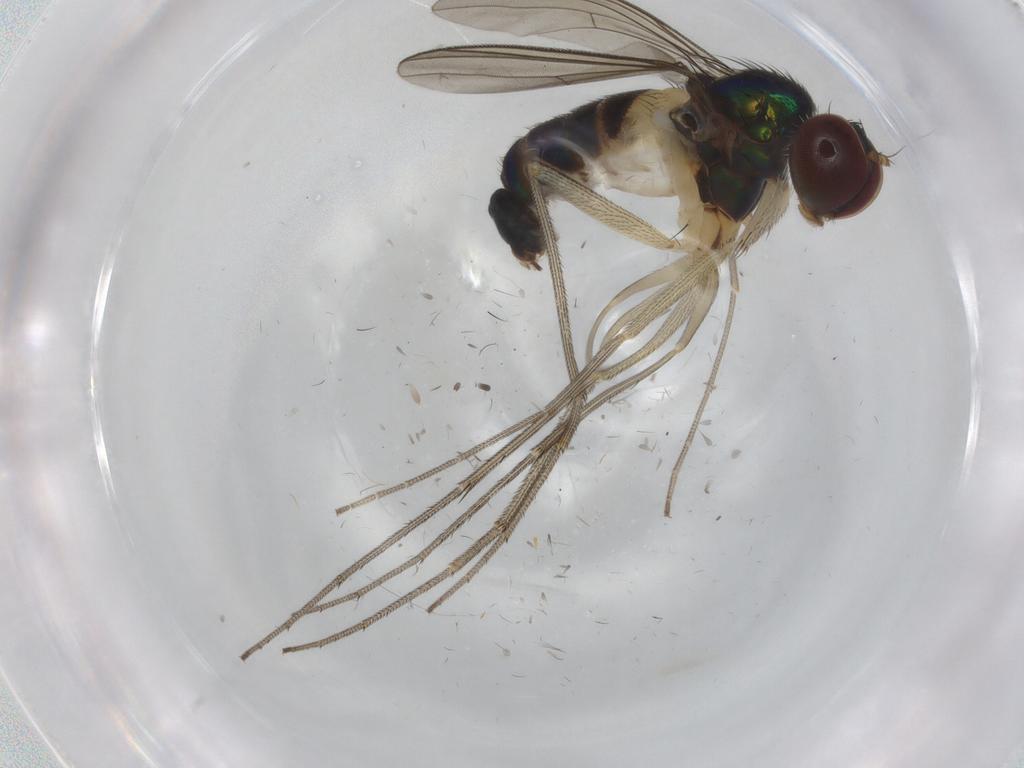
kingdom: Animalia
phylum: Arthropoda
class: Insecta
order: Diptera
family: Dolichopodidae
